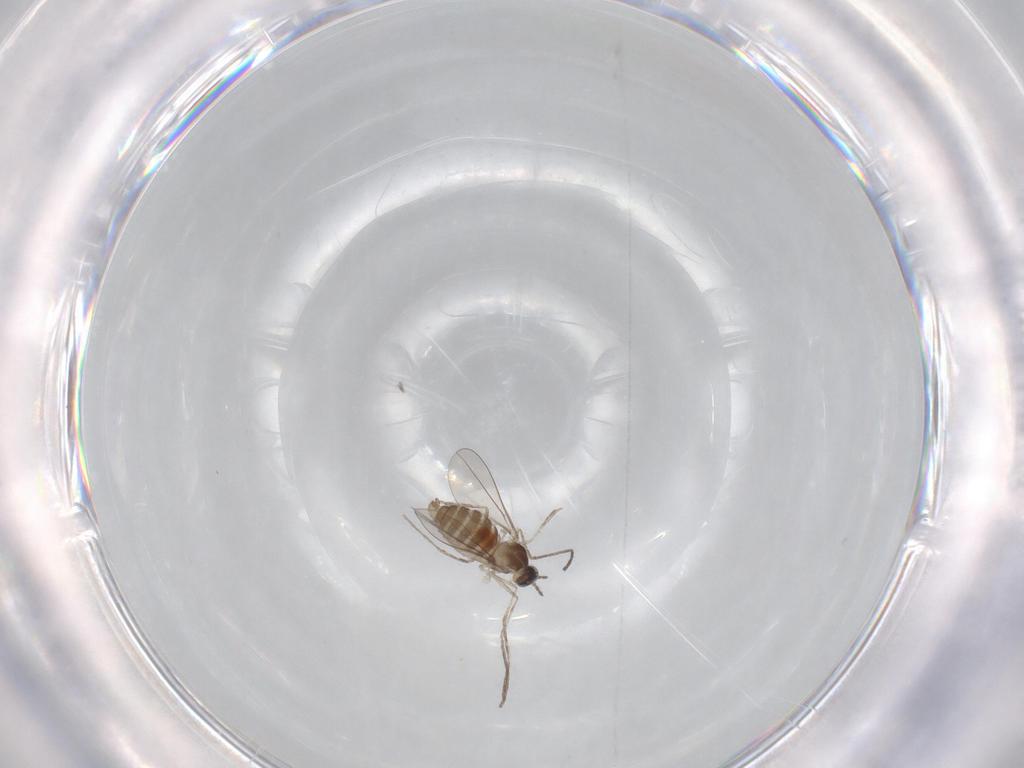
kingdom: Animalia
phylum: Arthropoda
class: Insecta
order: Diptera
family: Cecidomyiidae
